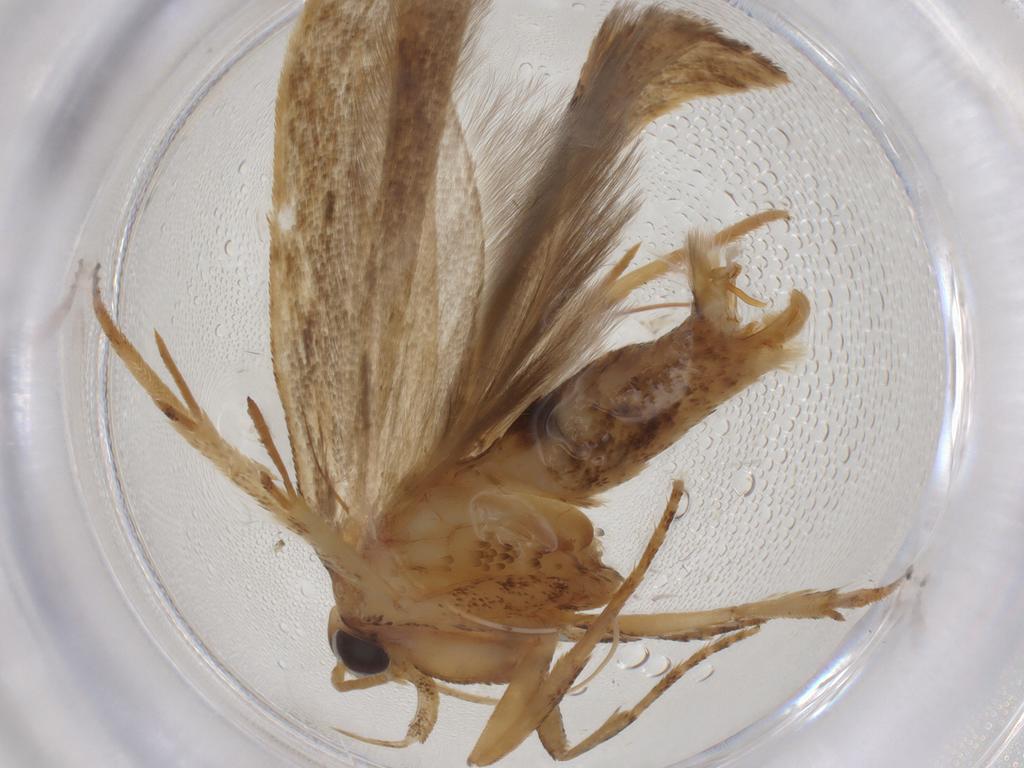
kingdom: Animalia
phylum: Arthropoda
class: Insecta
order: Lepidoptera
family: Gelechiidae
